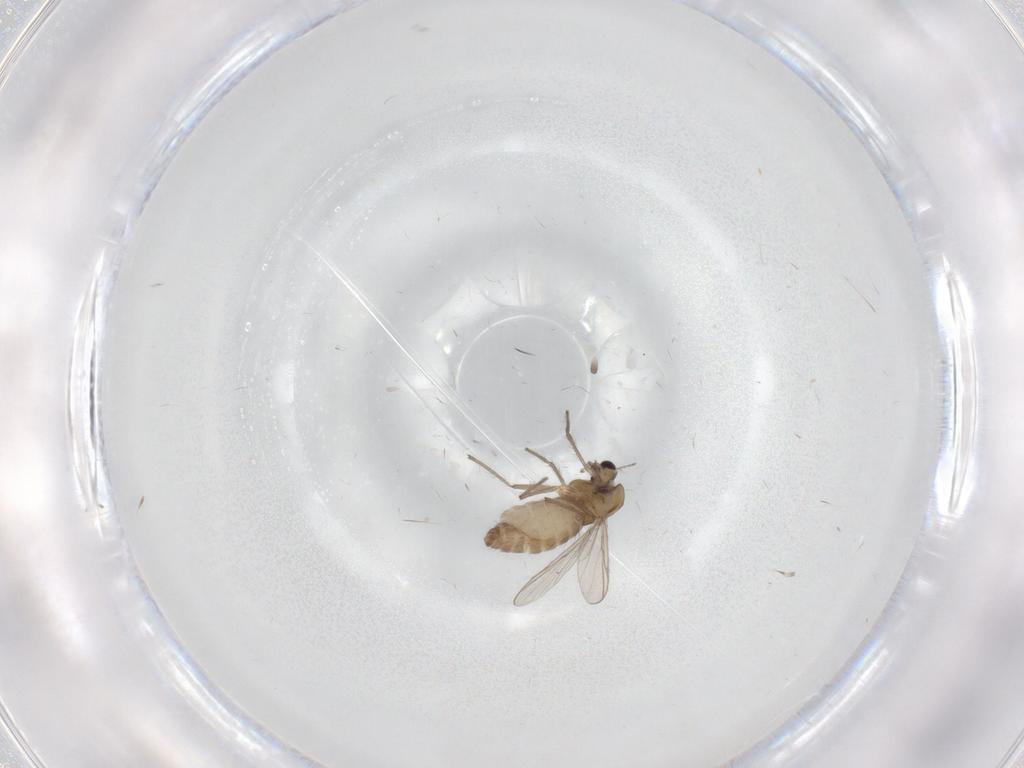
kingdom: Animalia
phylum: Arthropoda
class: Insecta
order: Diptera
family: Chironomidae
